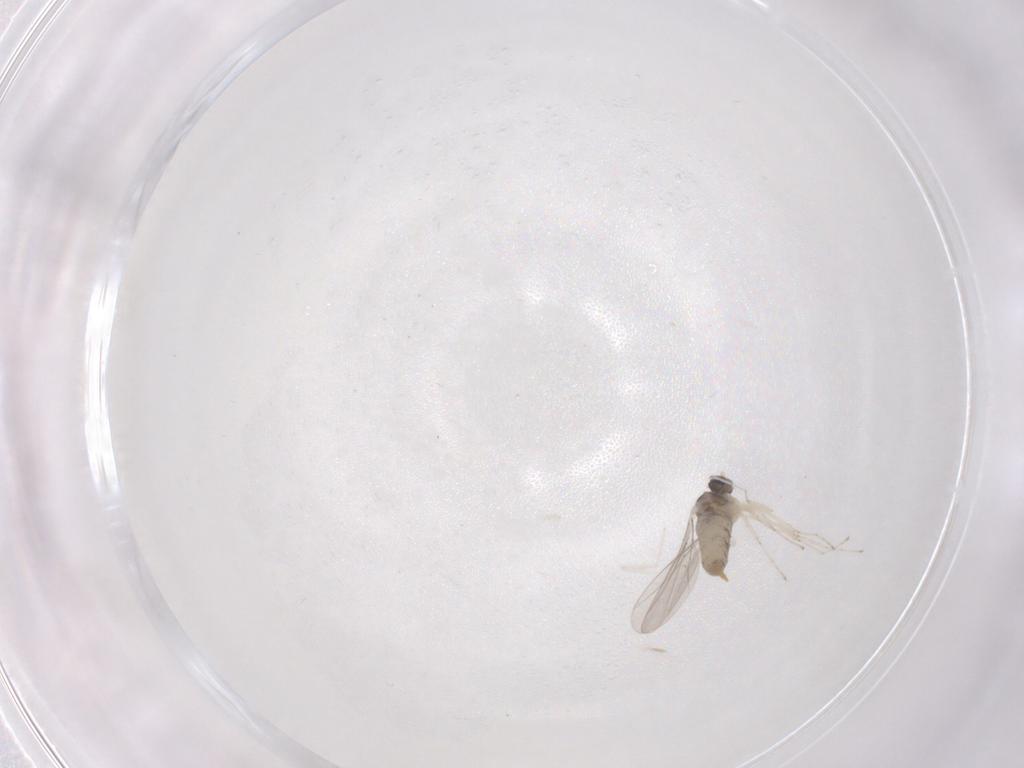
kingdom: Animalia
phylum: Arthropoda
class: Insecta
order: Diptera
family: Cecidomyiidae
